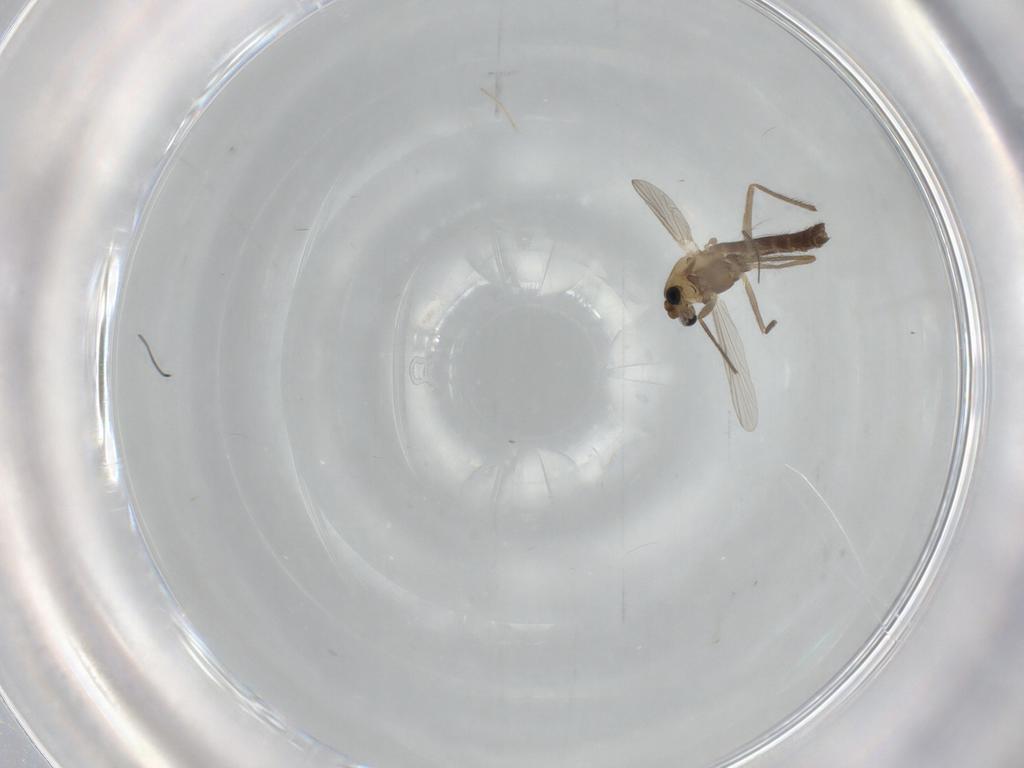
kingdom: Animalia
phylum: Arthropoda
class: Insecta
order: Diptera
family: Chironomidae
